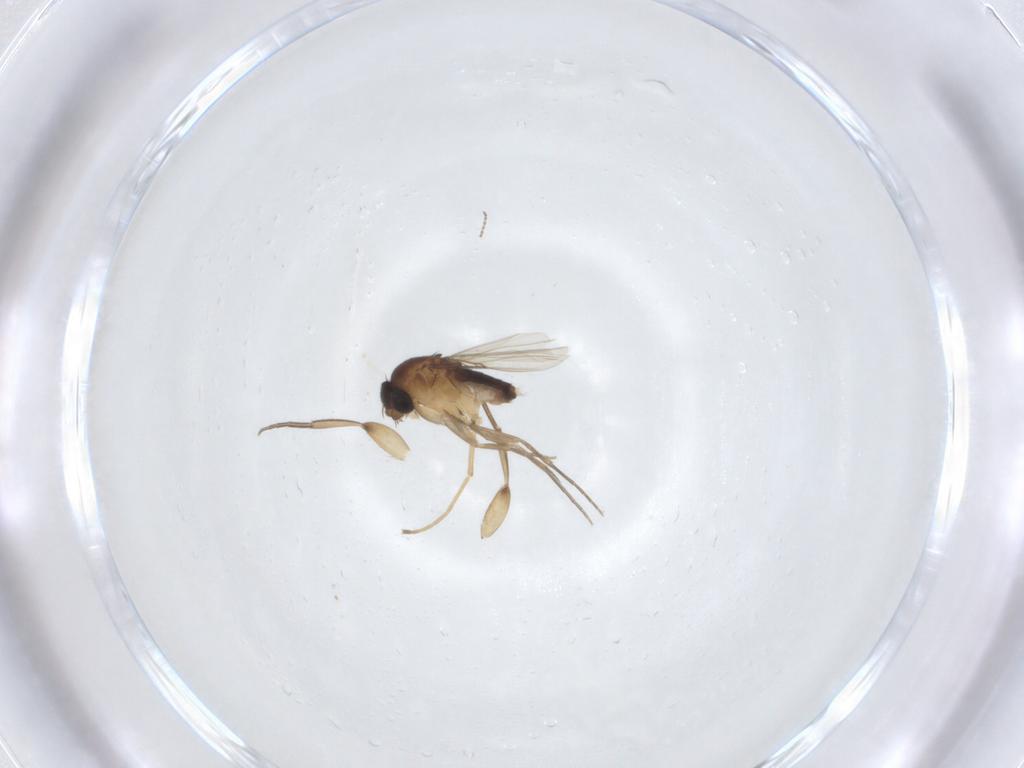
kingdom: Animalia
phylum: Arthropoda
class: Insecta
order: Diptera
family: Phoridae
